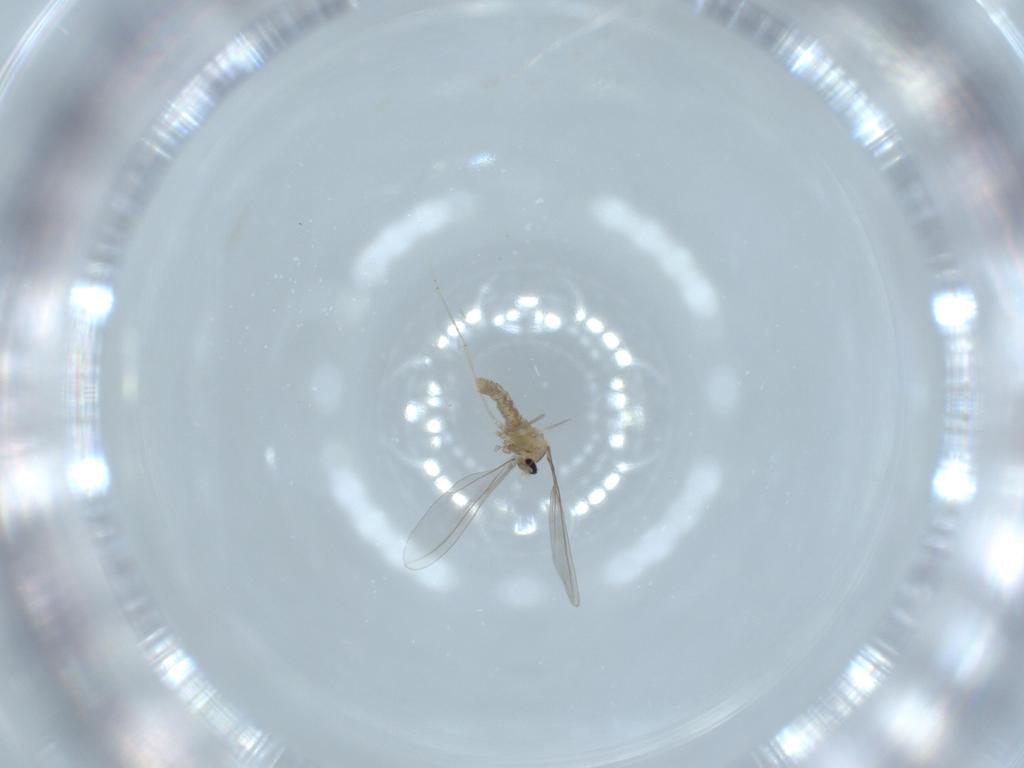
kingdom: Animalia
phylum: Arthropoda
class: Insecta
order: Diptera
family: Cecidomyiidae
